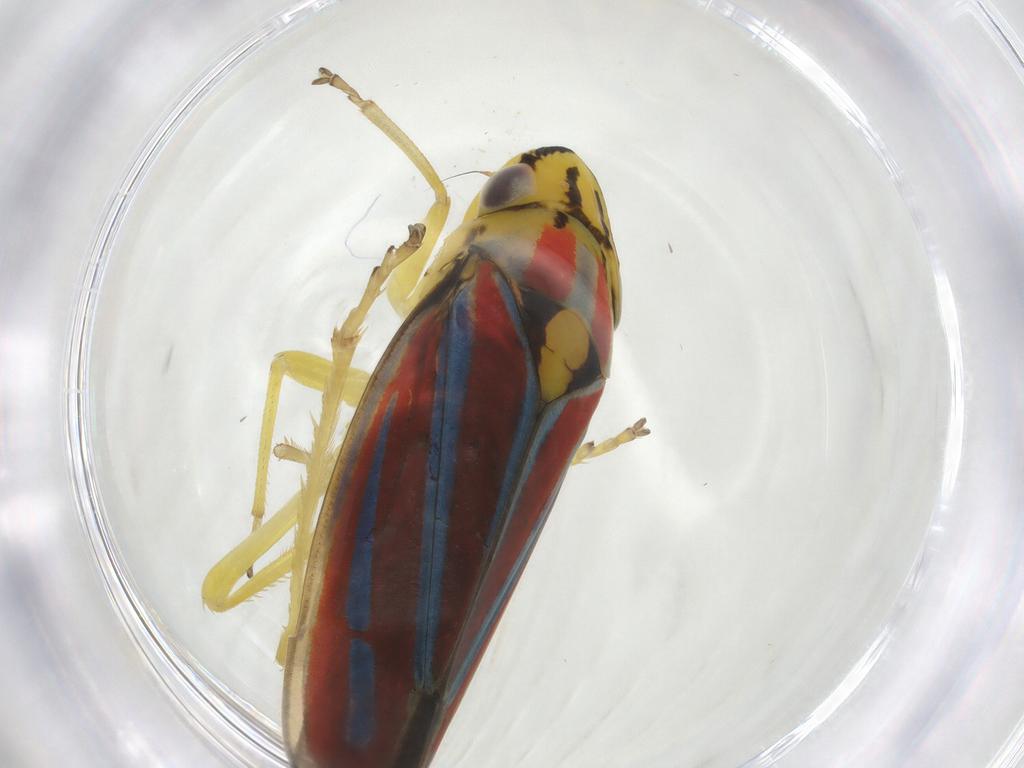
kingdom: Animalia
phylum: Arthropoda
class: Insecta
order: Hemiptera
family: Cicadellidae
